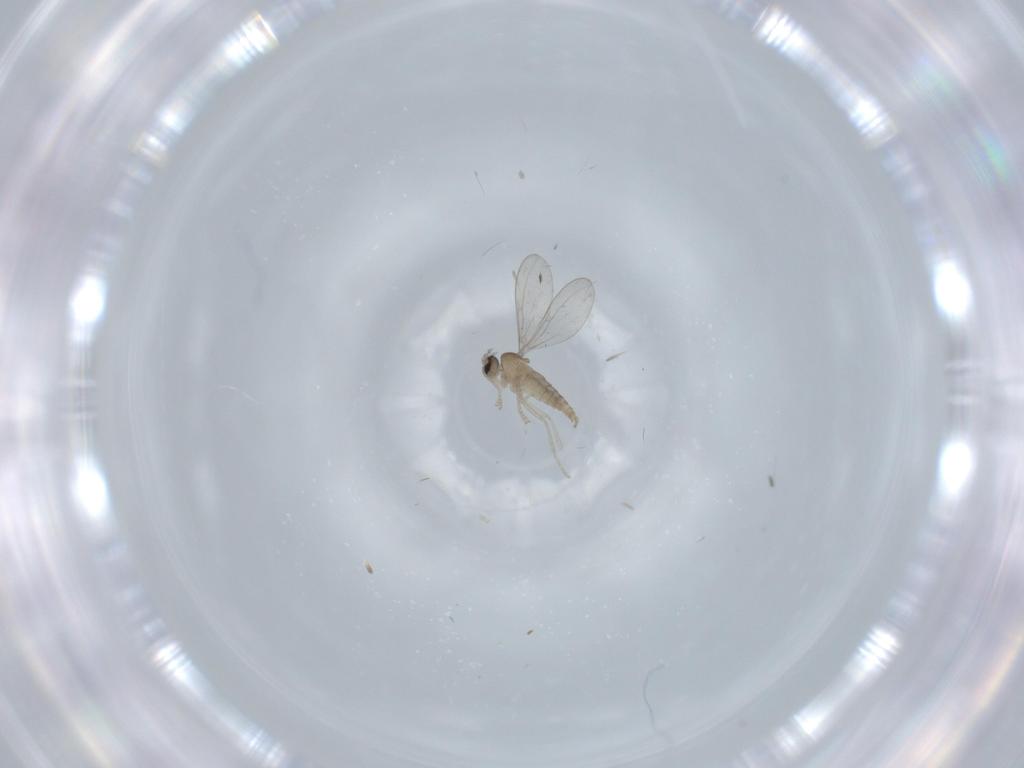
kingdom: Animalia
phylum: Arthropoda
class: Insecta
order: Diptera
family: Cecidomyiidae
